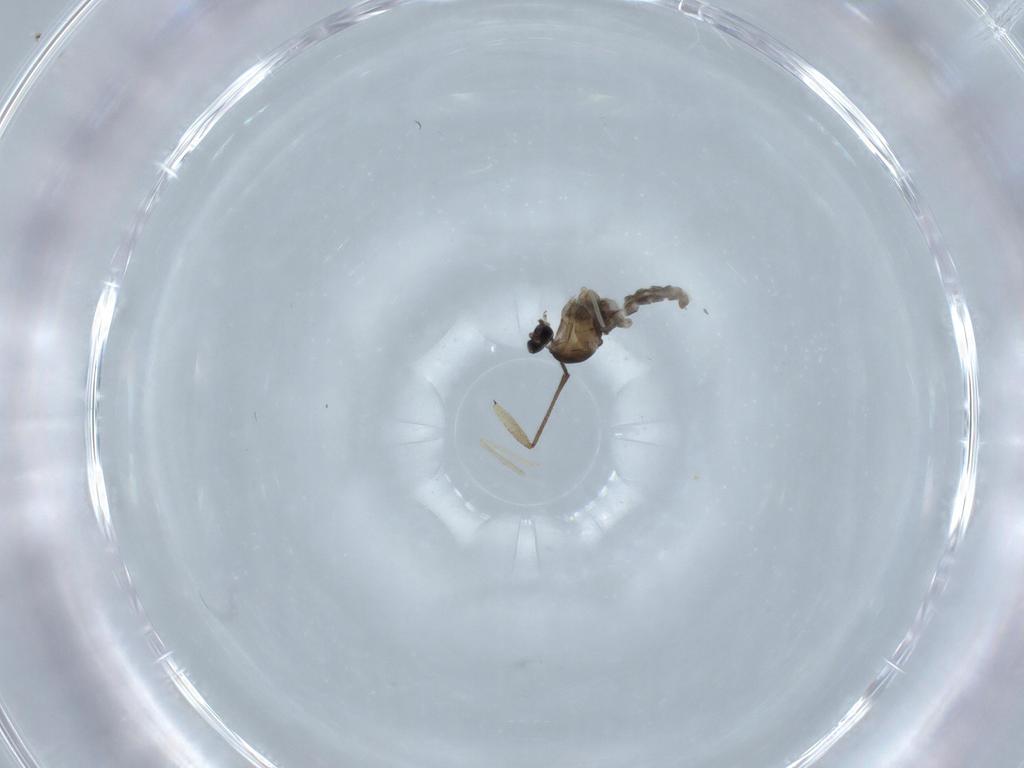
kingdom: Animalia
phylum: Arthropoda
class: Insecta
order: Diptera
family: Cecidomyiidae
